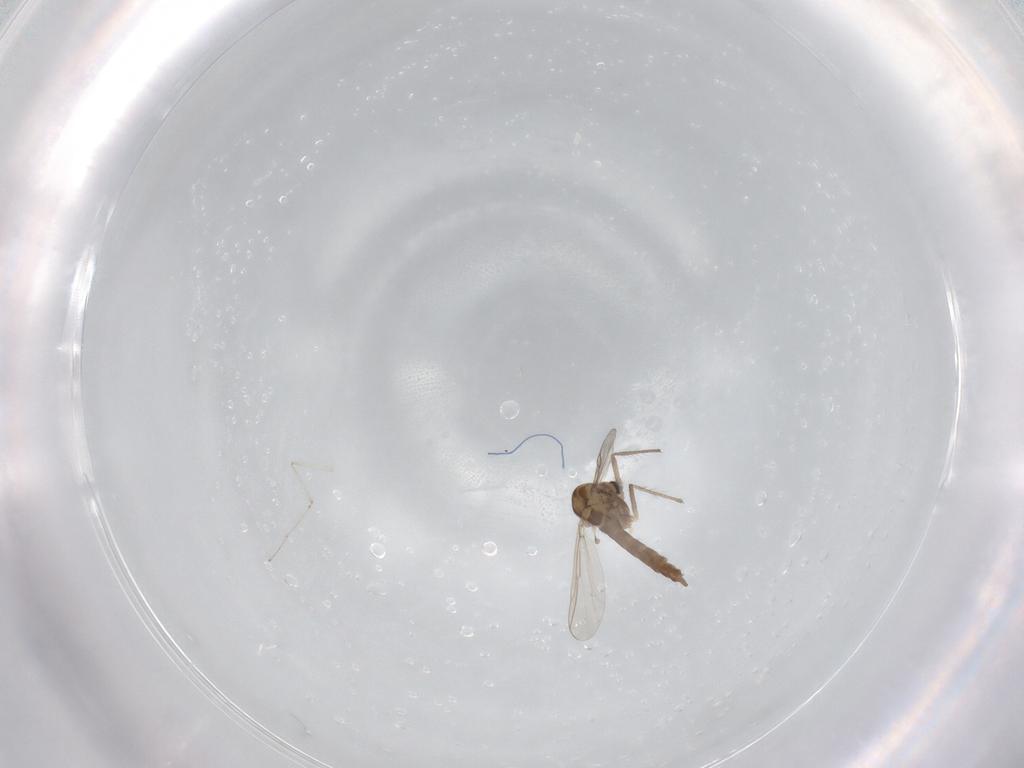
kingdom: Animalia
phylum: Arthropoda
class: Insecta
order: Diptera
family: Chironomidae
